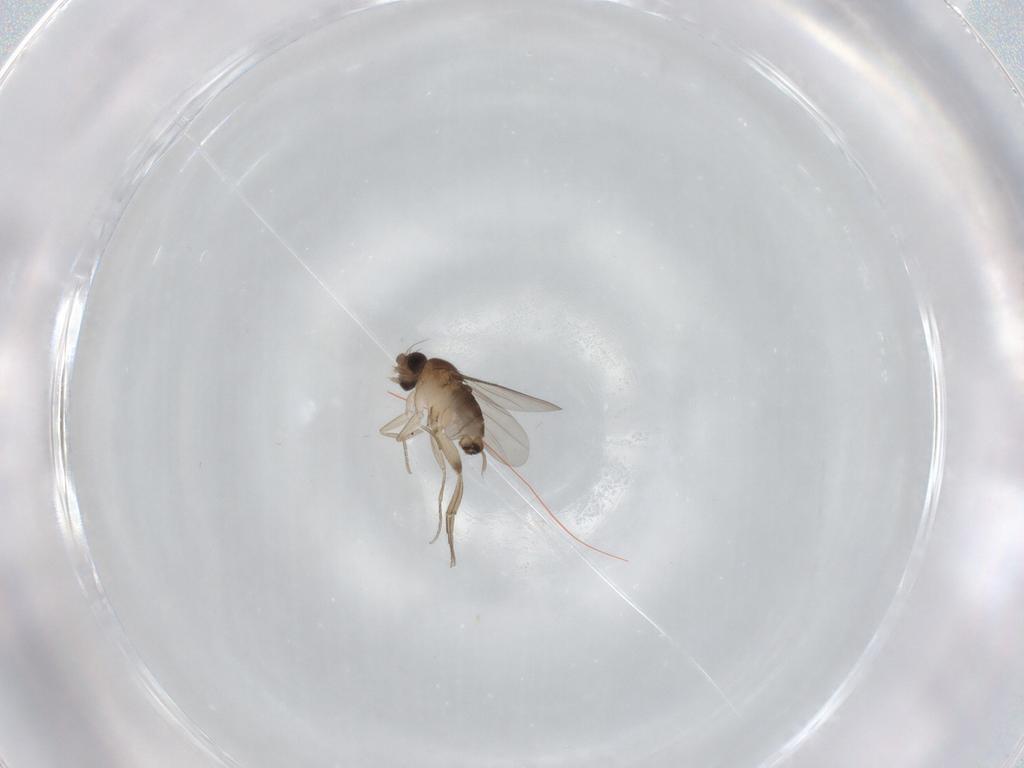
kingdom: Animalia
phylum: Arthropoda
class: Insecta
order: Diptera
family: Phoridae
